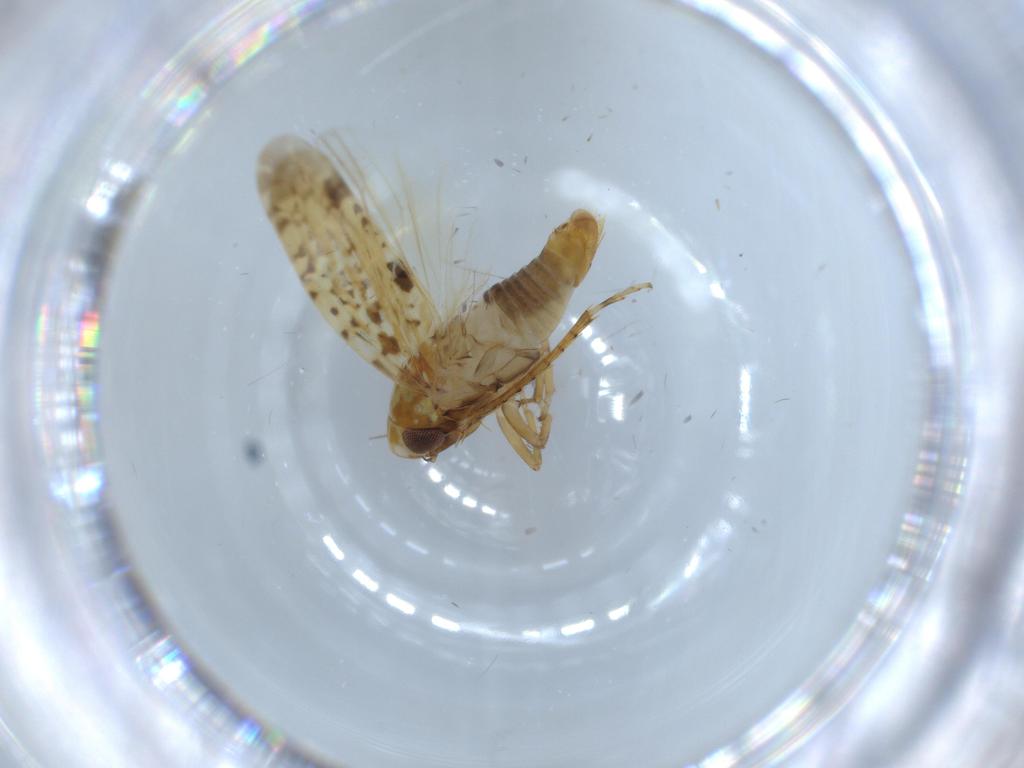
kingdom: Animalia
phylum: Arthropoda
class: Insecta
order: Hemiptera
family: Cicadellidae
